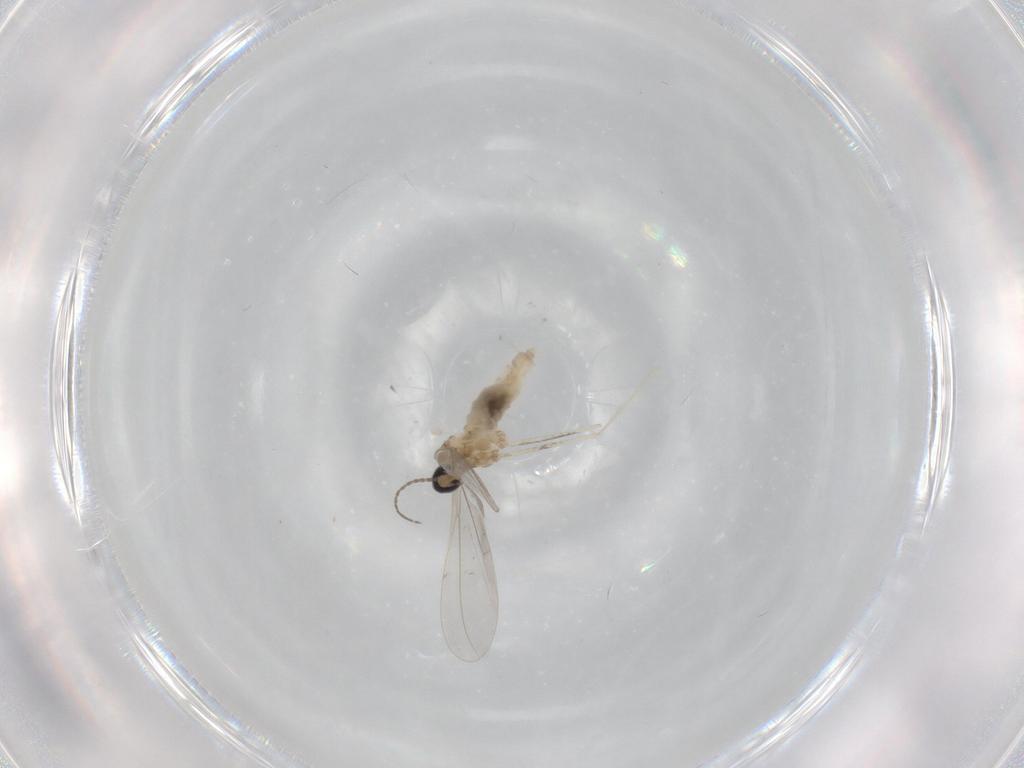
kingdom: Animalia
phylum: Arthropoda
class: Insecta
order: Diptera
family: Cecidomyiidae
